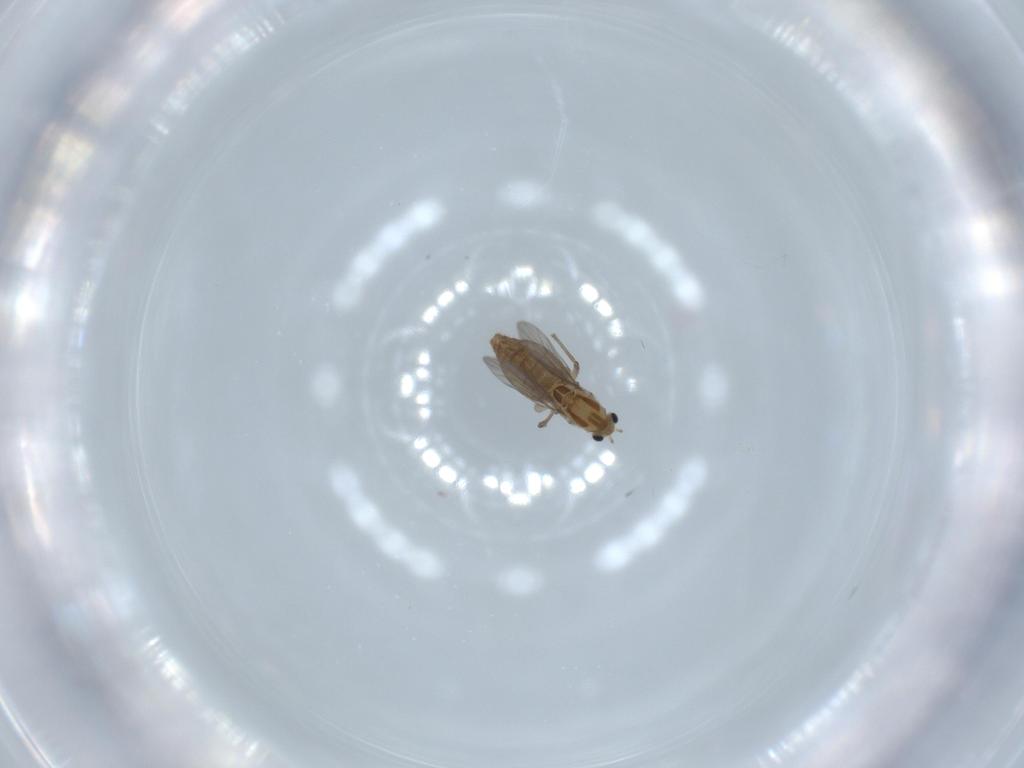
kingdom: Animalia
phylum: Arthropoda
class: Insecta
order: Diptera
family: Chironomidae
